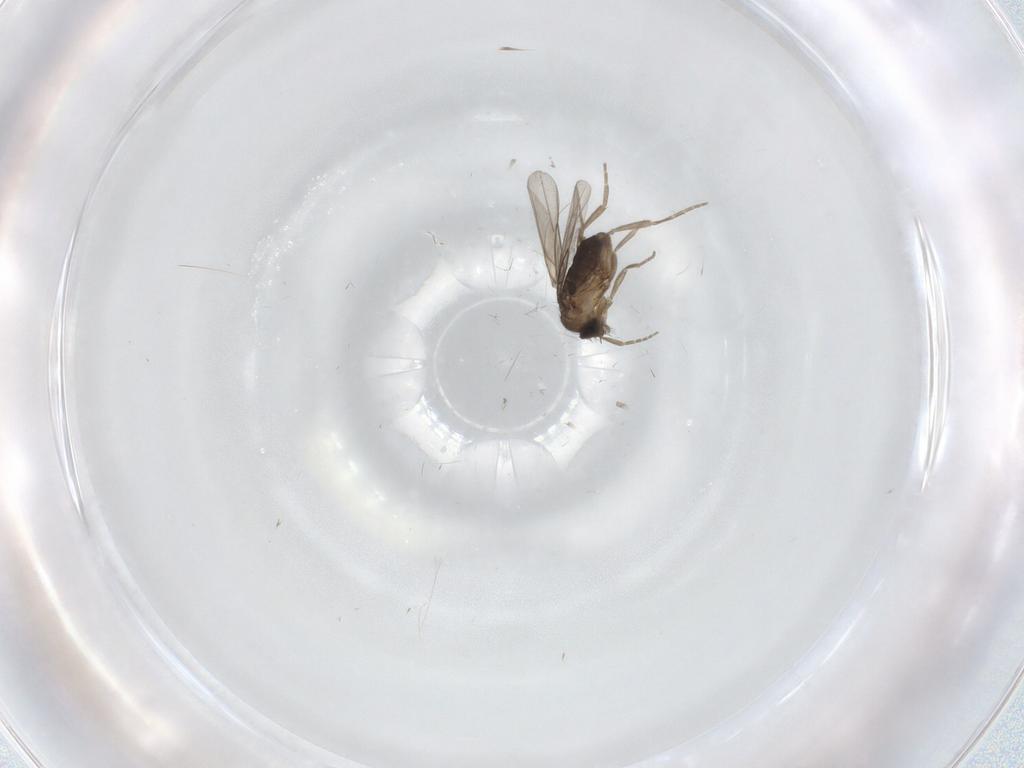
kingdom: Animalia
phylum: Arthropoda
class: Insecta
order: Diptera
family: Phoridae
